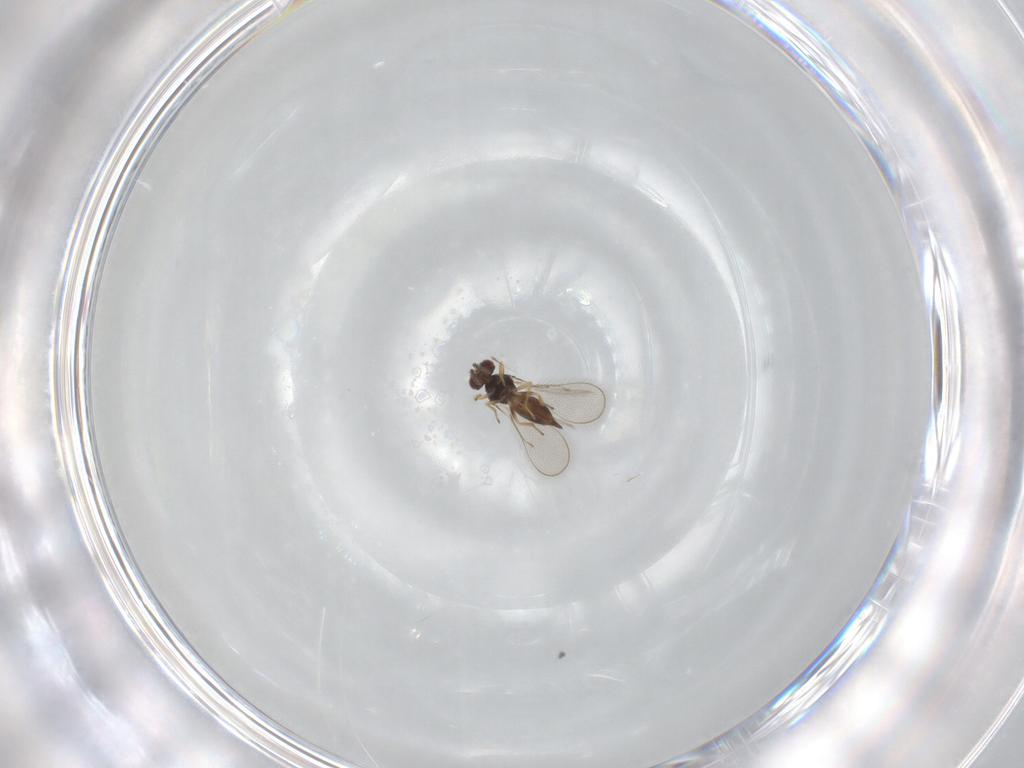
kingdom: Animalia
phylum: Arthropoda
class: Insecta
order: Hymenoptera
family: Eulophidae
